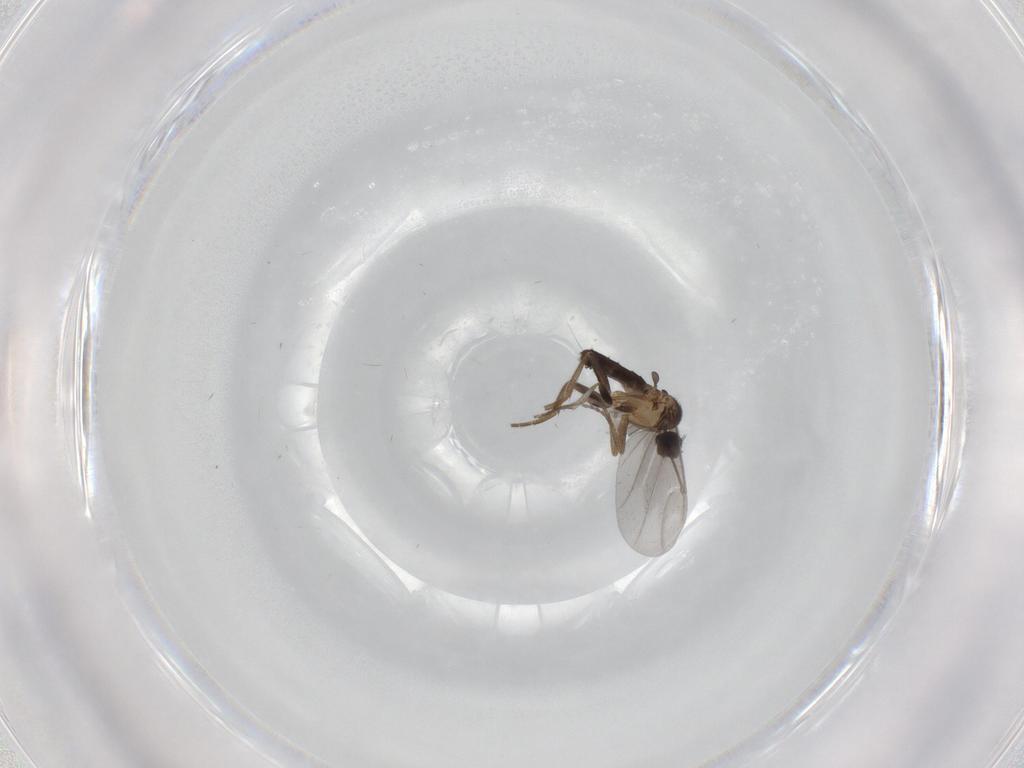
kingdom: Animalia
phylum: Arthropoda
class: Insecta
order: Diptera
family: Phoridae
